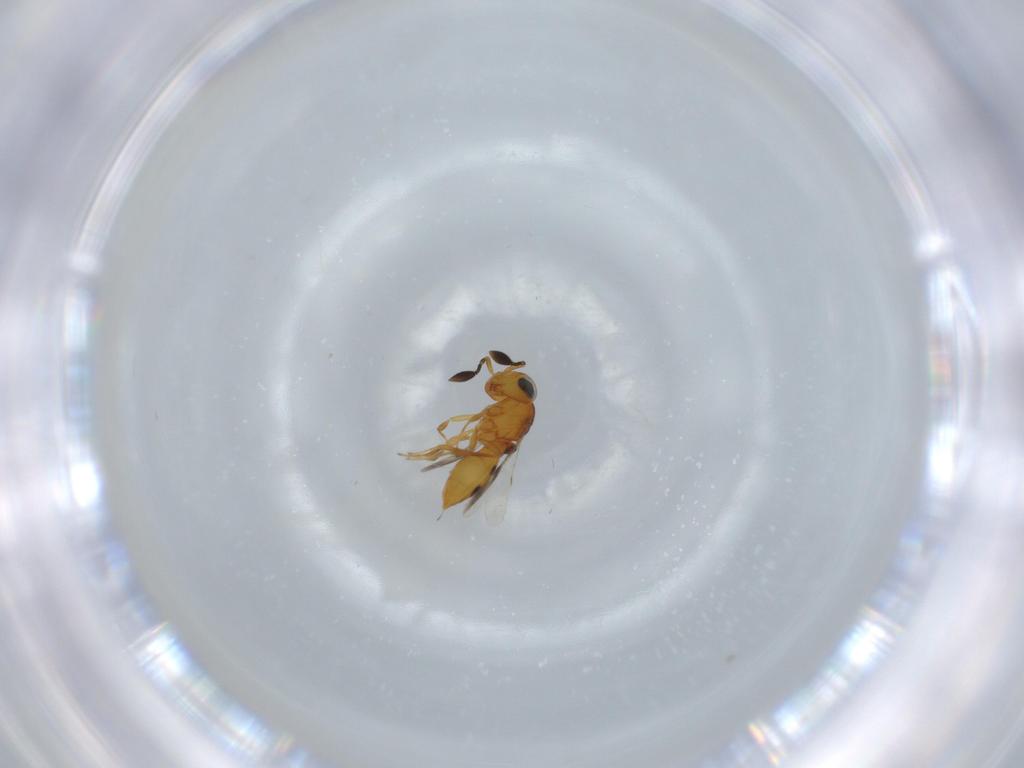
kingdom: Animalia
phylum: Arthropoda
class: Insecta
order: Hymenoptera
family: Scelionidae
